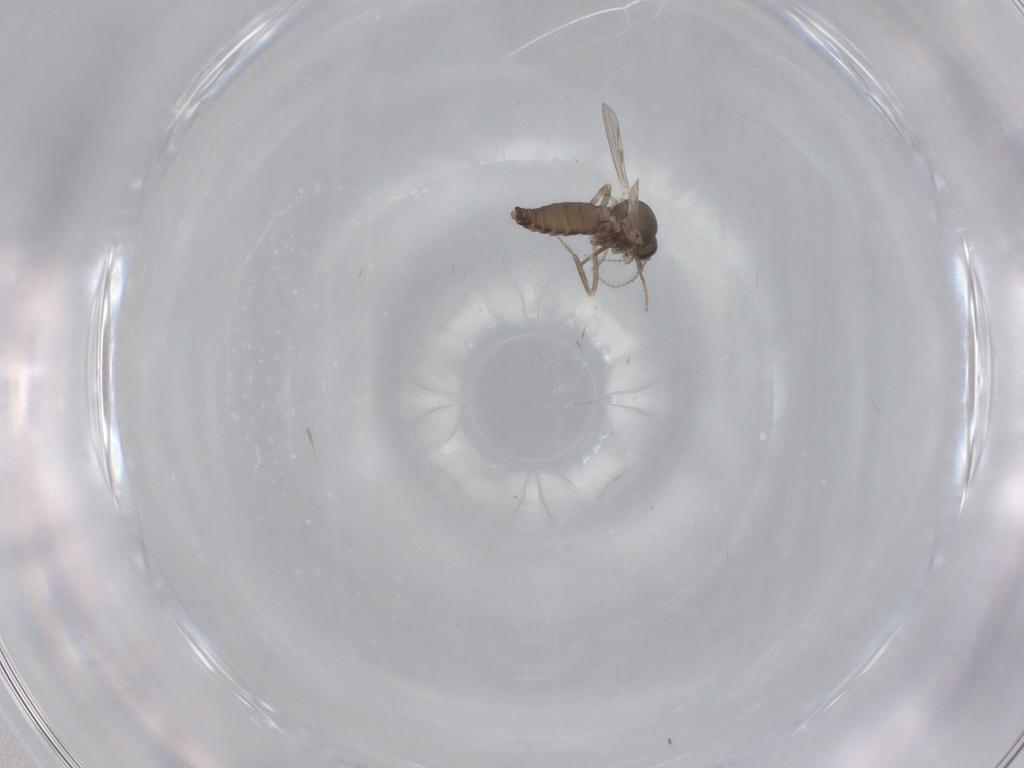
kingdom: Animalia
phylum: Arthropoda
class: Insecta
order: Diptera
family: Ceratopogonidae
